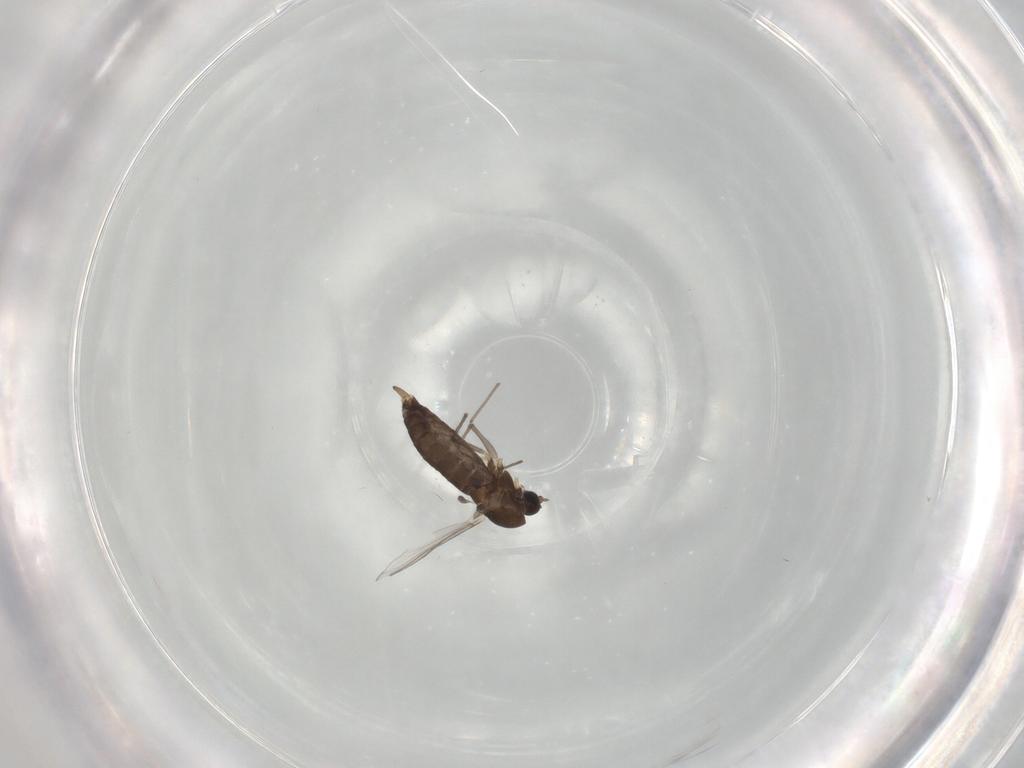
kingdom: Animalia
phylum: Arthropoda
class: Insecta
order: Diptera
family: Chironomidae
